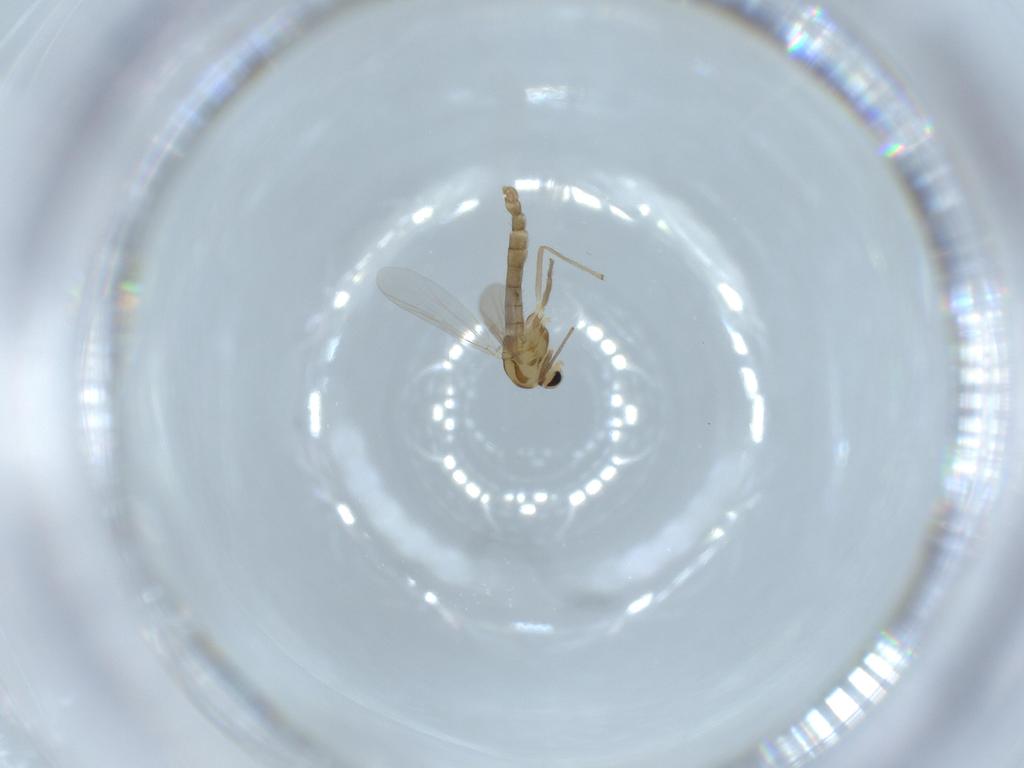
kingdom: Animalia
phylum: Arthropoda
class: Insecta
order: Diptera
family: Chironomidae
